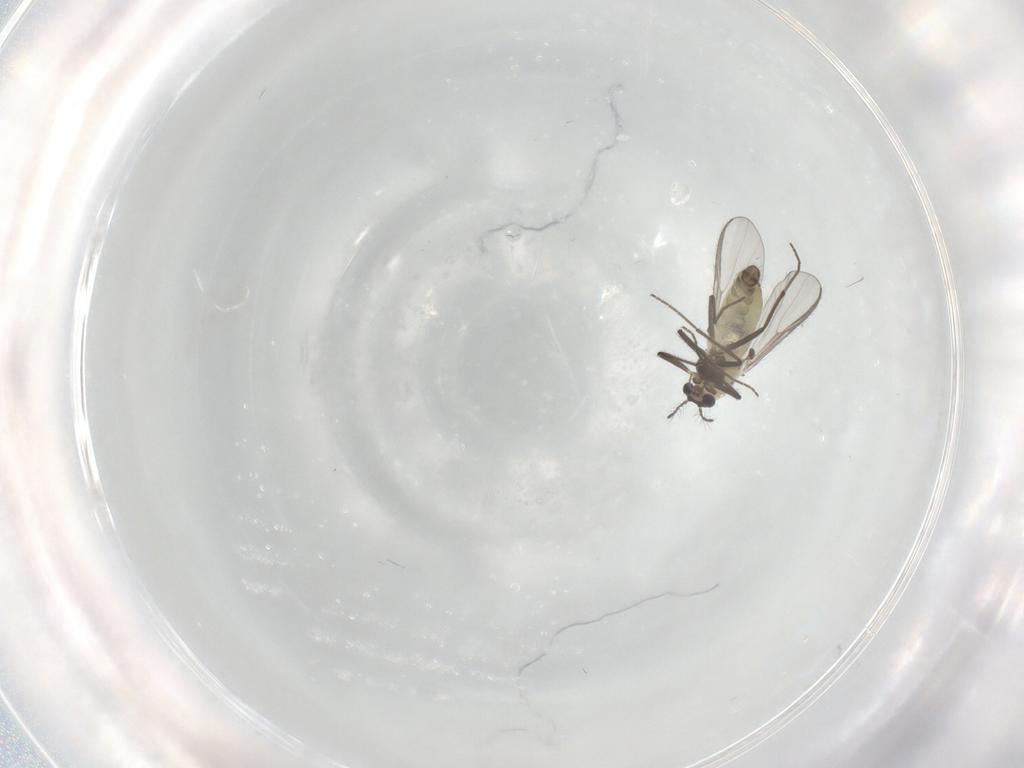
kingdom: Animalia
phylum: Arthropoda
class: Insecta
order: Diptera
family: Chironomidae
